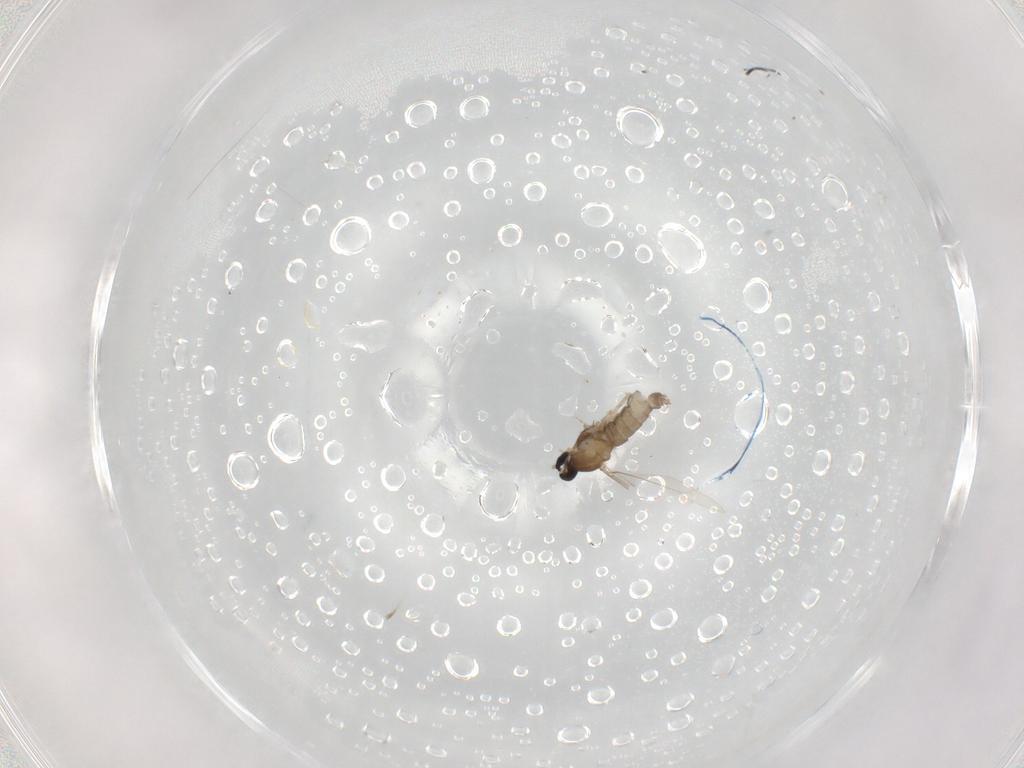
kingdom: Animalia
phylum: Arthropoda
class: Insecta
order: Diptera
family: Cecidomyiidae
